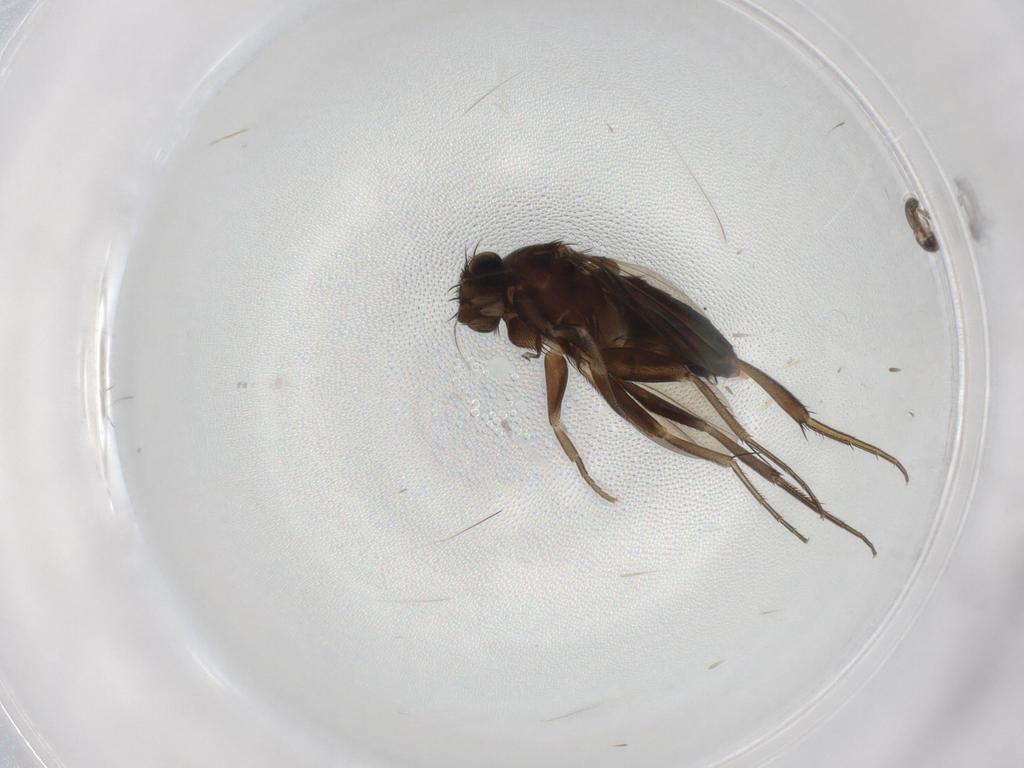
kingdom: Animalia
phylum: Arthropoda
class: Insecta
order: Diptera
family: Phoridae
